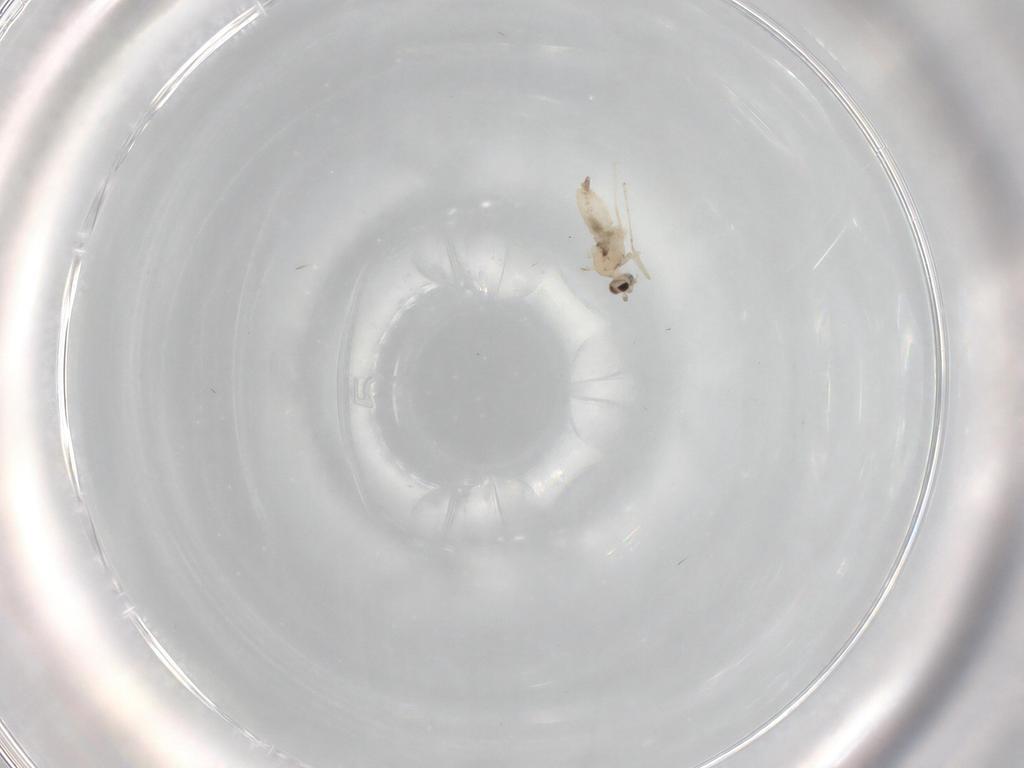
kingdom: Animalia
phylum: Arthropoda
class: Insecta
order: Diptera
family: Cecidomyiidae
